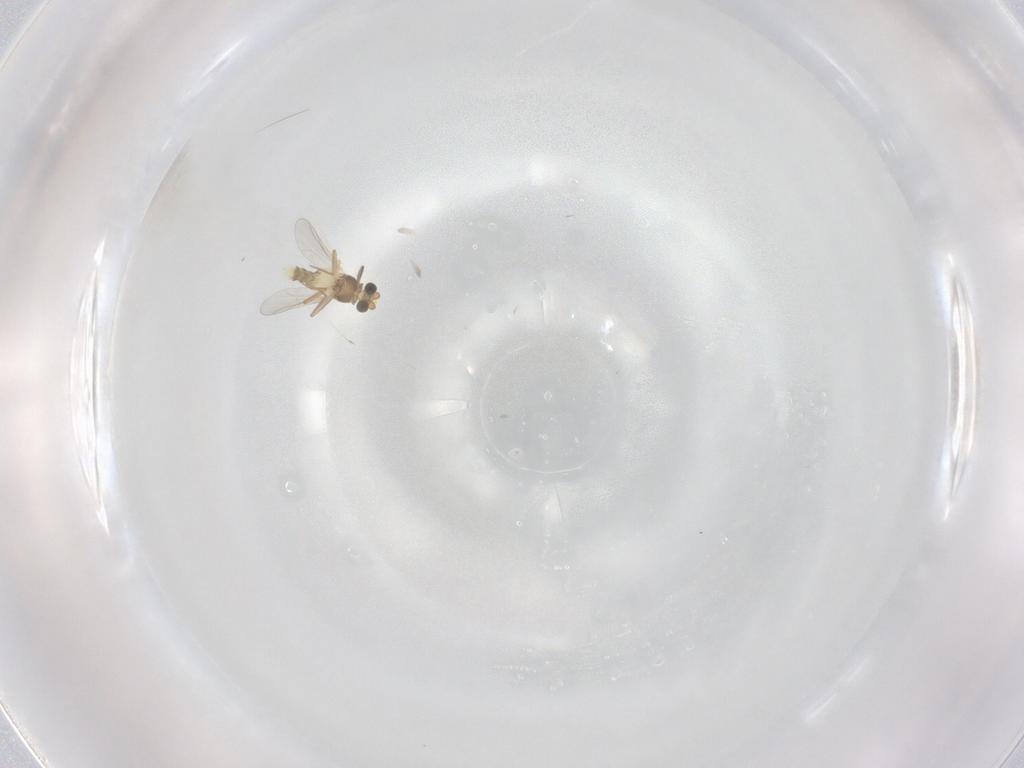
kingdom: Animalia
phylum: Arthropoda
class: Insecta
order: Diptera
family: Chironomidae
